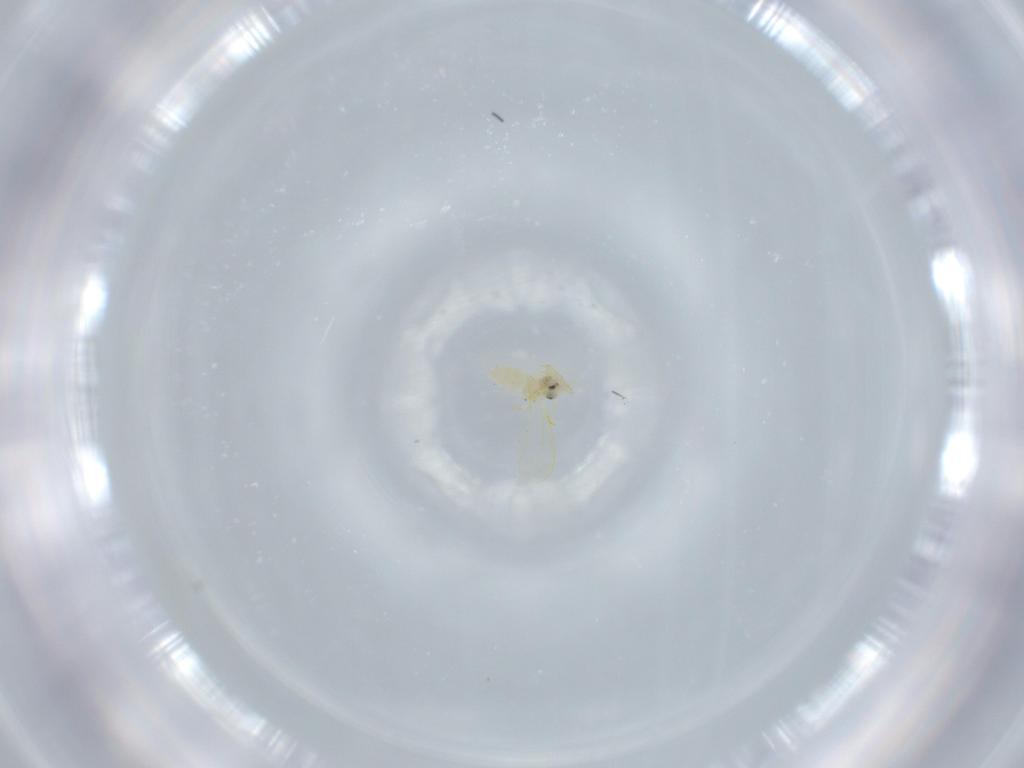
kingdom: Animalia
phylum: Arthropoda
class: Insecta
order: Hemiptera
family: Aleyrodidae
